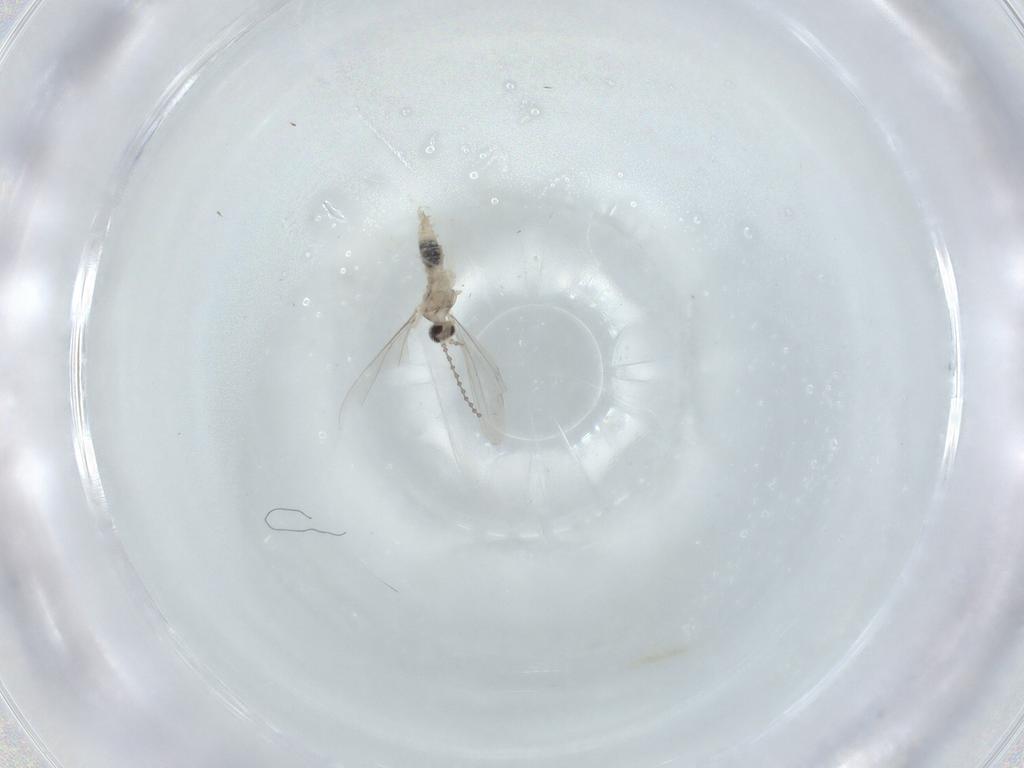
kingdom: Animalia
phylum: Arthropoda
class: Insecta
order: Diptera
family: Cecidomyiidae
